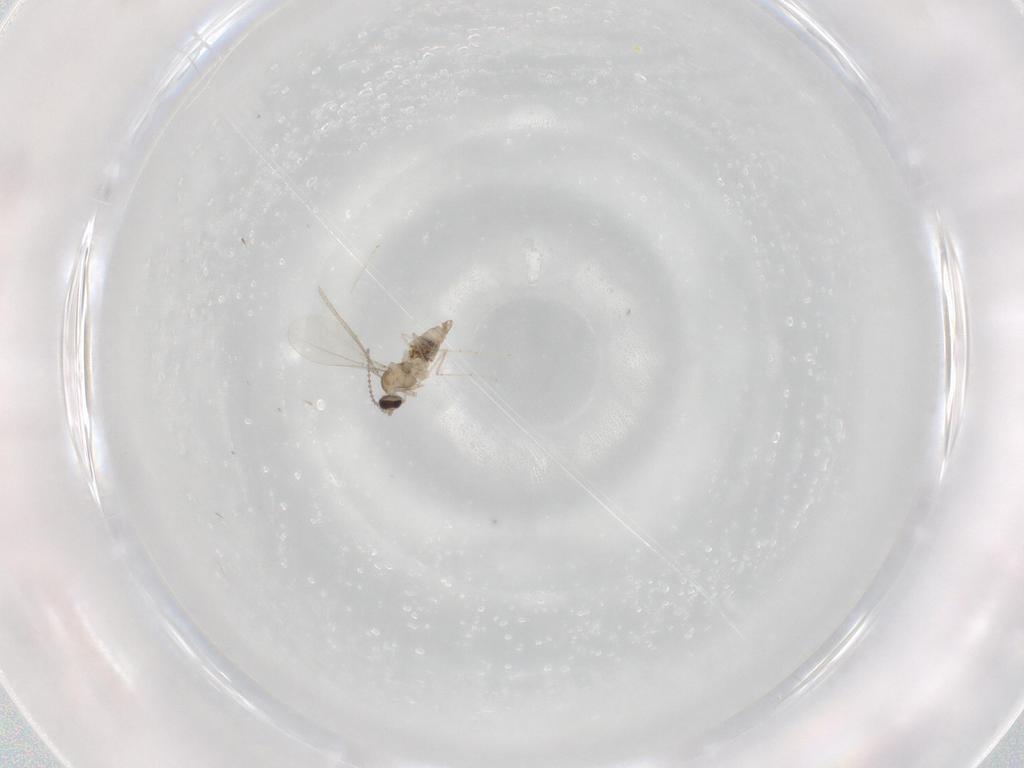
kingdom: Animalia
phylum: Arthropoda
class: Insecta
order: Diptera
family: Cecidomyiidae
